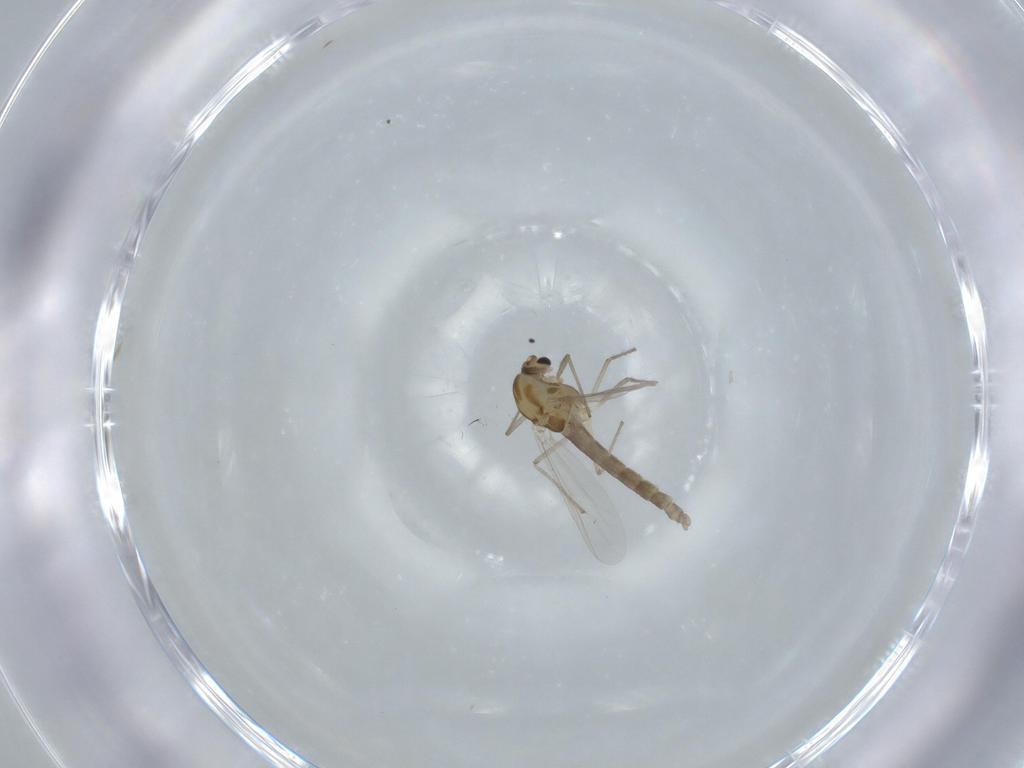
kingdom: Animalia
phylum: Arthropoda
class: Insecta
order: Diptera
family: Chironomidae
